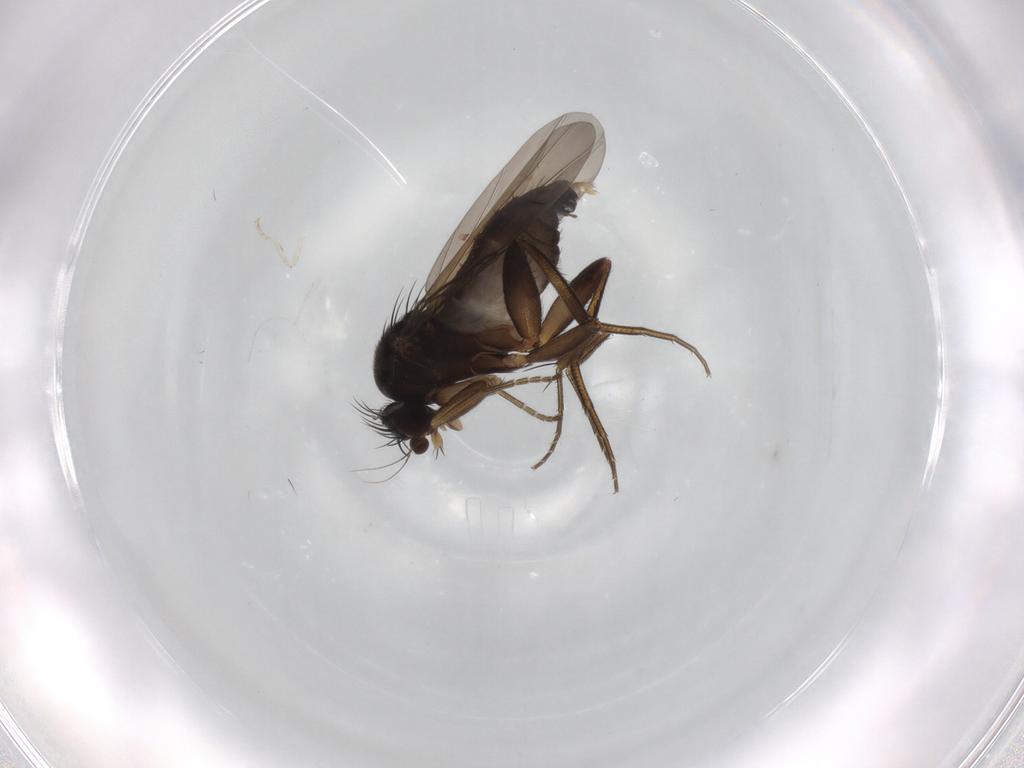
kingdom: Animalia
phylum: Arthropoda
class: Insecta
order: Diptera
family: Phoridae
